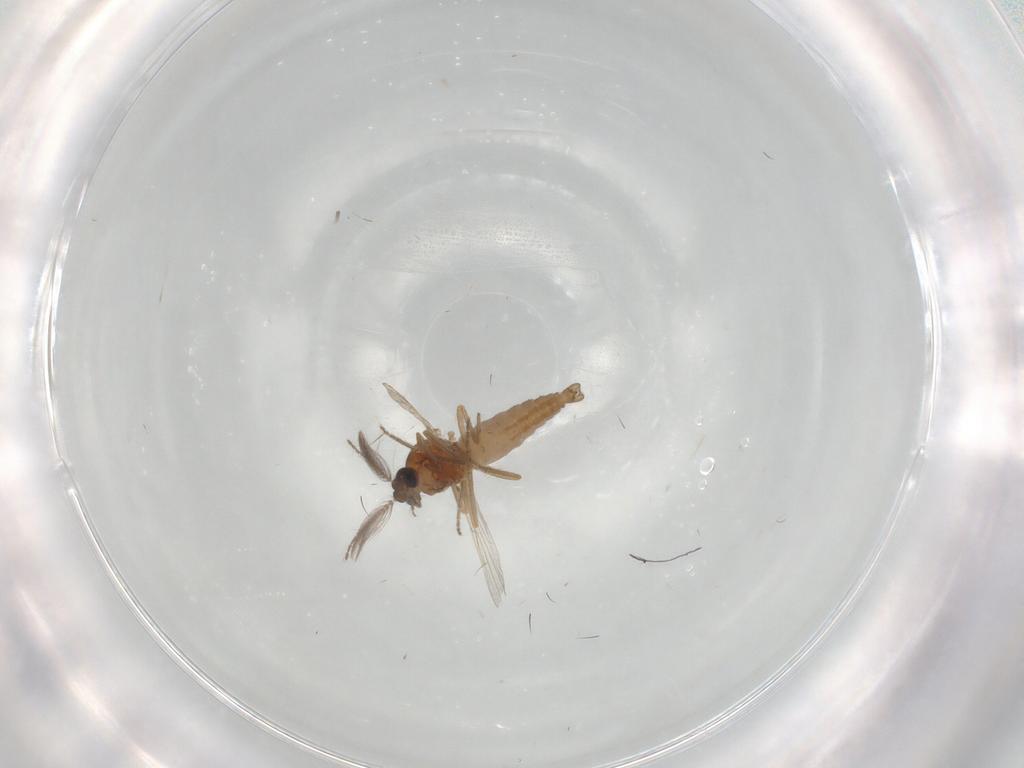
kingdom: Animalia
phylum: Arthropoda
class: Insecta
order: Diptera
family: Ceratopogonidae
